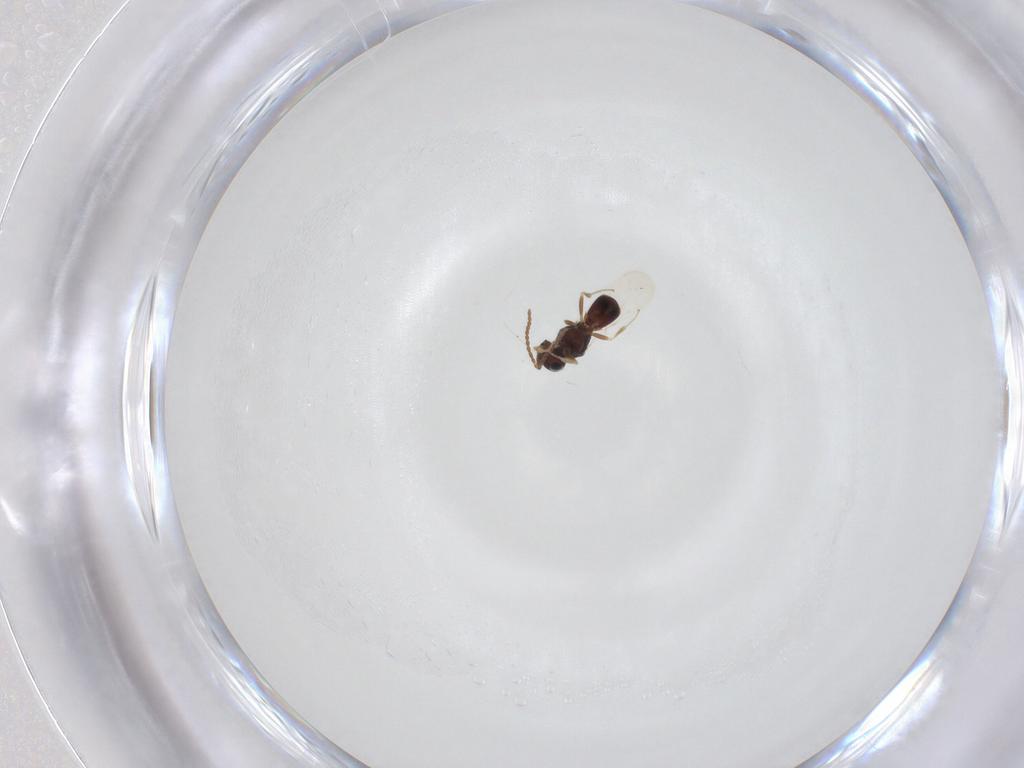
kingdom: Animalia
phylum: Arthropoda
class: Insecta
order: Hymenoptera
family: Scelionidae
